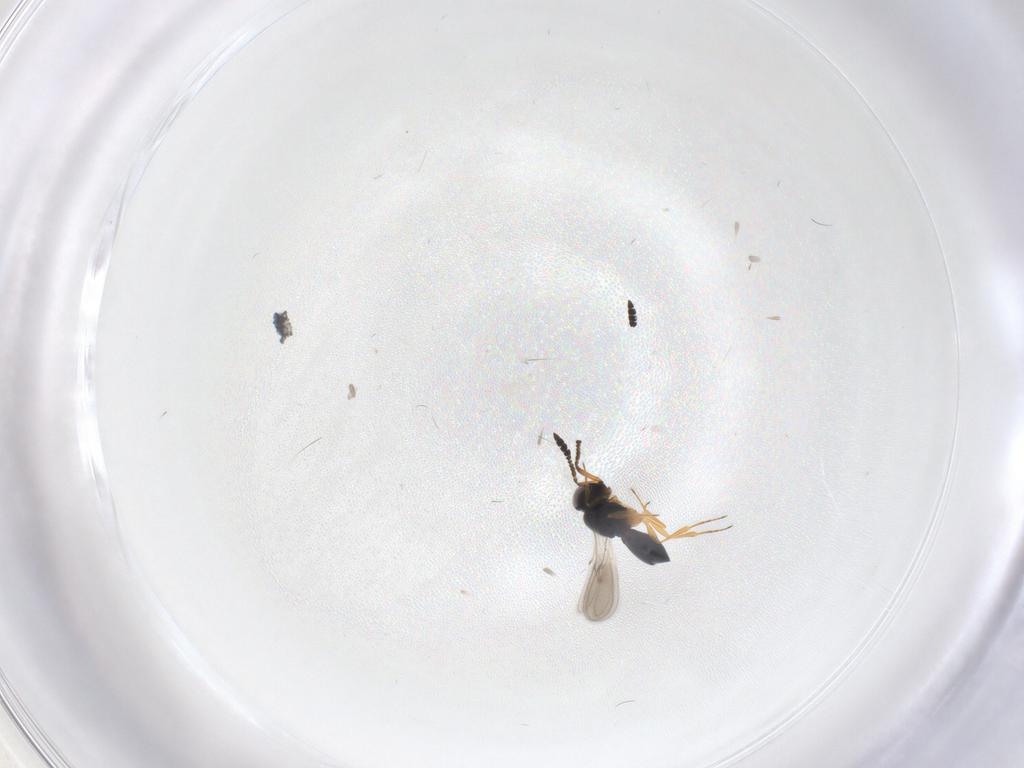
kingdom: Animalia
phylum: Arthropoda
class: Insecta
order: Hymenoptera
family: Scelionidae
